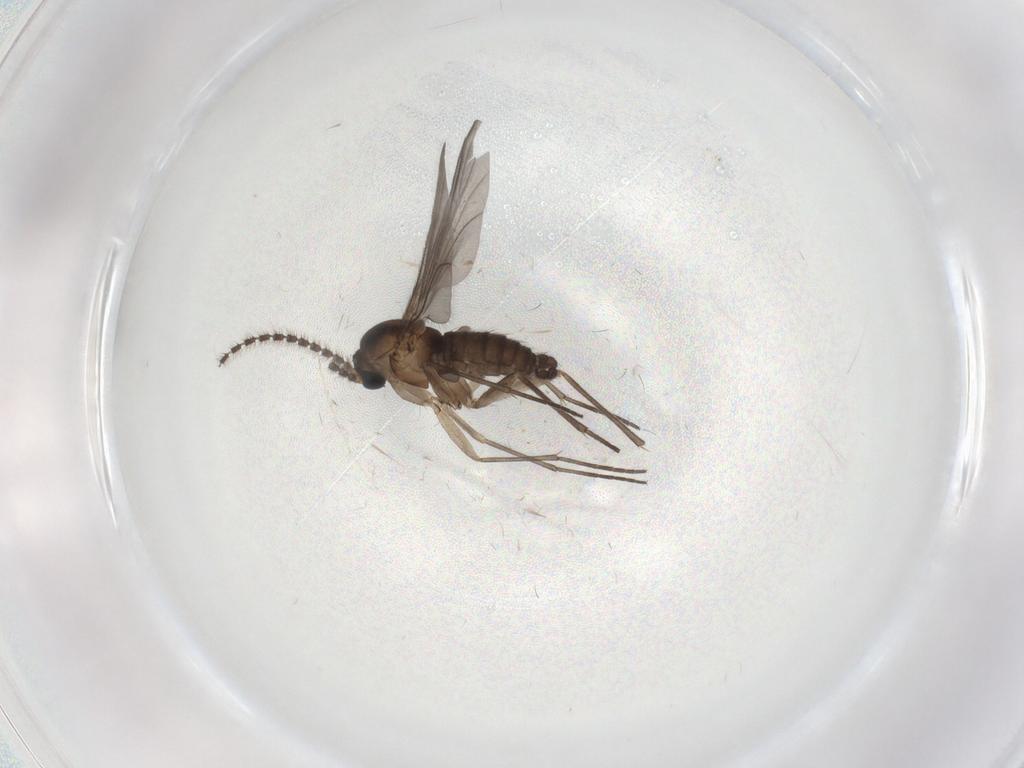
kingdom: Animalia
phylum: Arthropoda
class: Insecta
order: Diptera
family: Sciaridae
